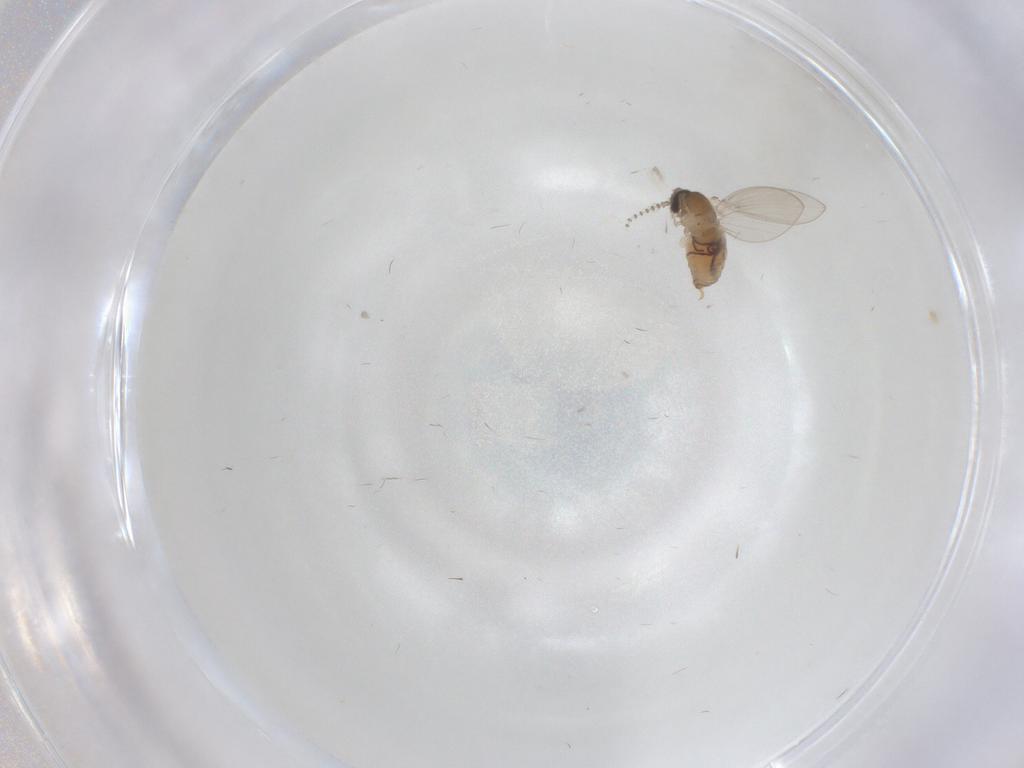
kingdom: Animalia
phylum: Arthropoda
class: Insecta
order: Diptera
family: Psychodidae
